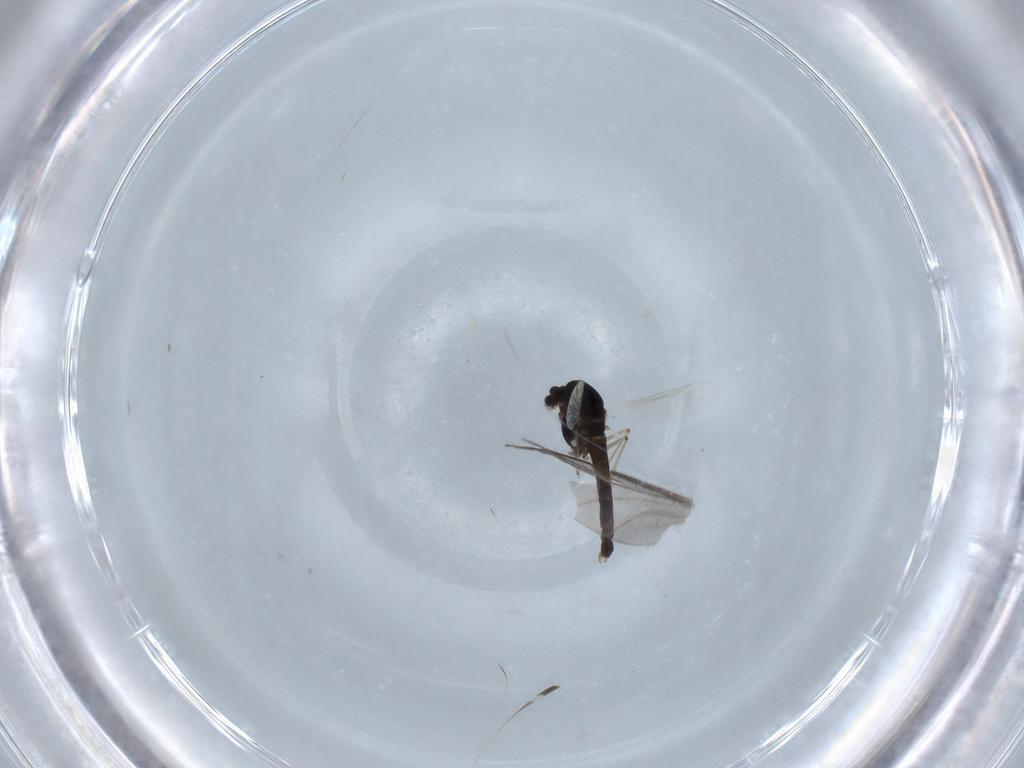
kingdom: Animalia
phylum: Arthropoda
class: Insecta
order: Diptera
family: Chironomidae
